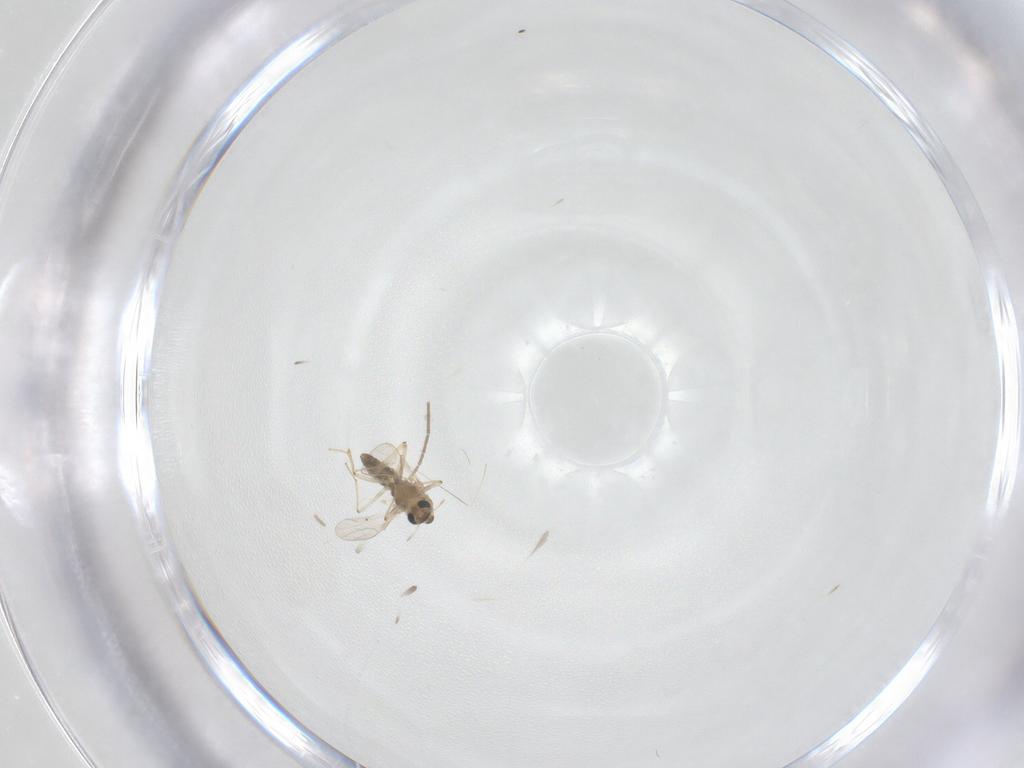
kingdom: Animalia
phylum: Arthropoda
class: Insecta
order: Diptera
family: Chironomidae
